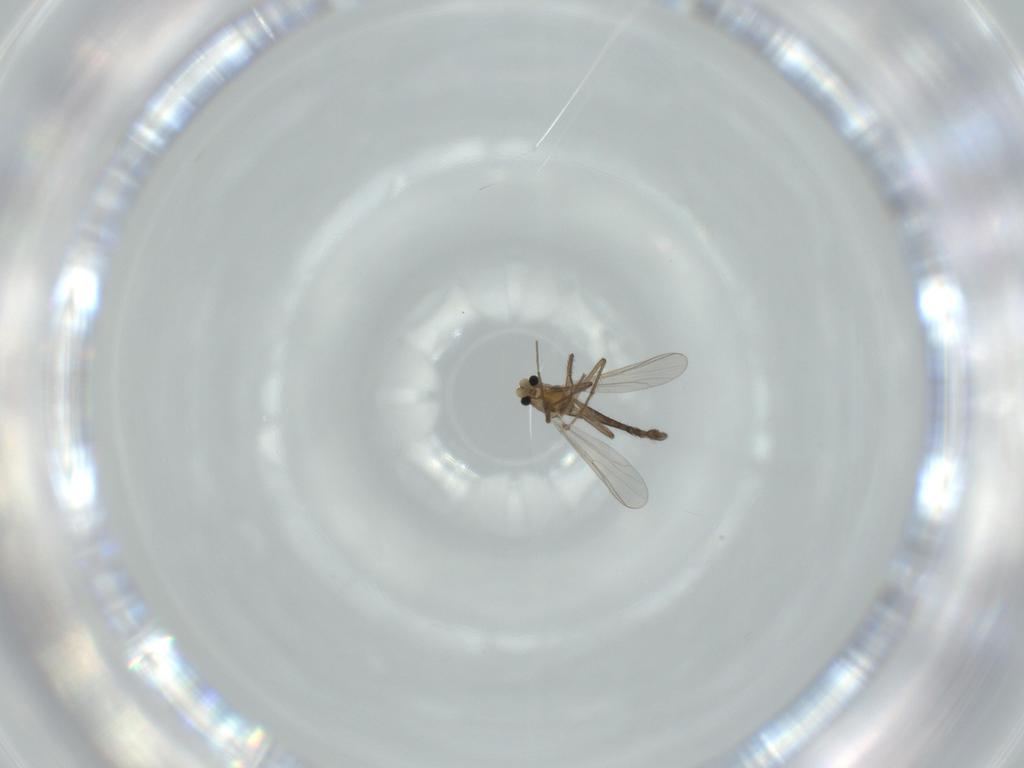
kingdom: Animalia
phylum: Arthropoda
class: Insecta
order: Diptera
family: Chironomidae
